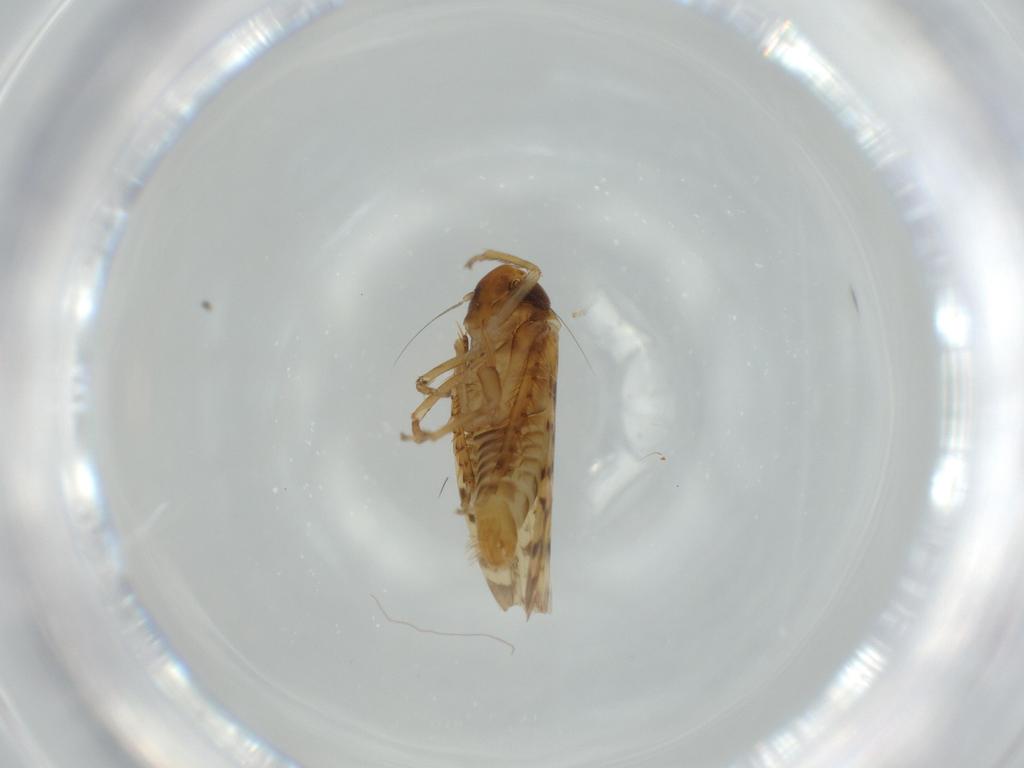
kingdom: Animalia
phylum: Arthropoda
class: Insecta
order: Hemiptera
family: Cicadellidae
